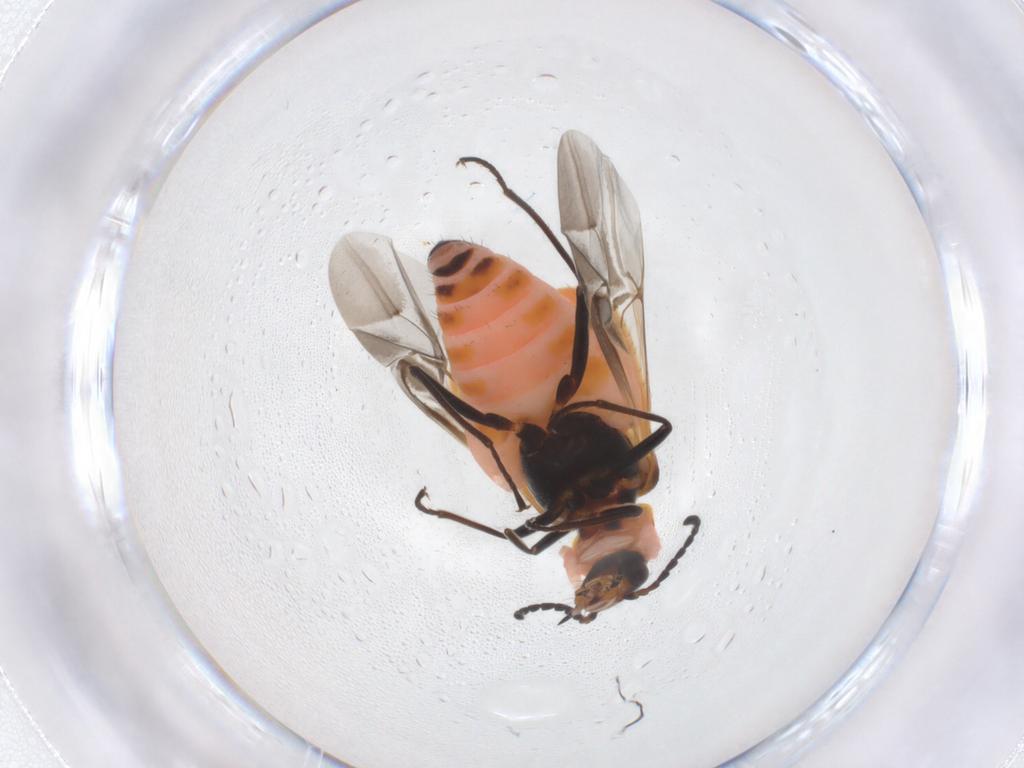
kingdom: Animalia
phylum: Arthropoda
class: Insecta
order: Coleoptera
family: Melyridae
